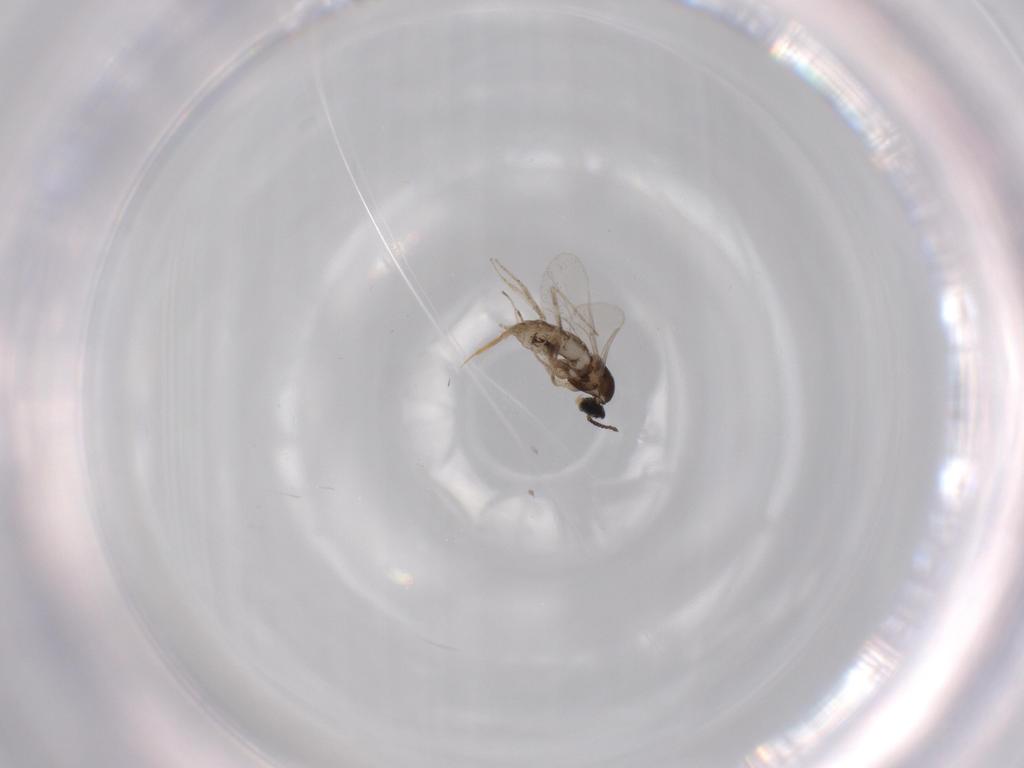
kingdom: Animalia
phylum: Arthropoda
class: Insecta
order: Diptera
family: Cecidomyiidae
